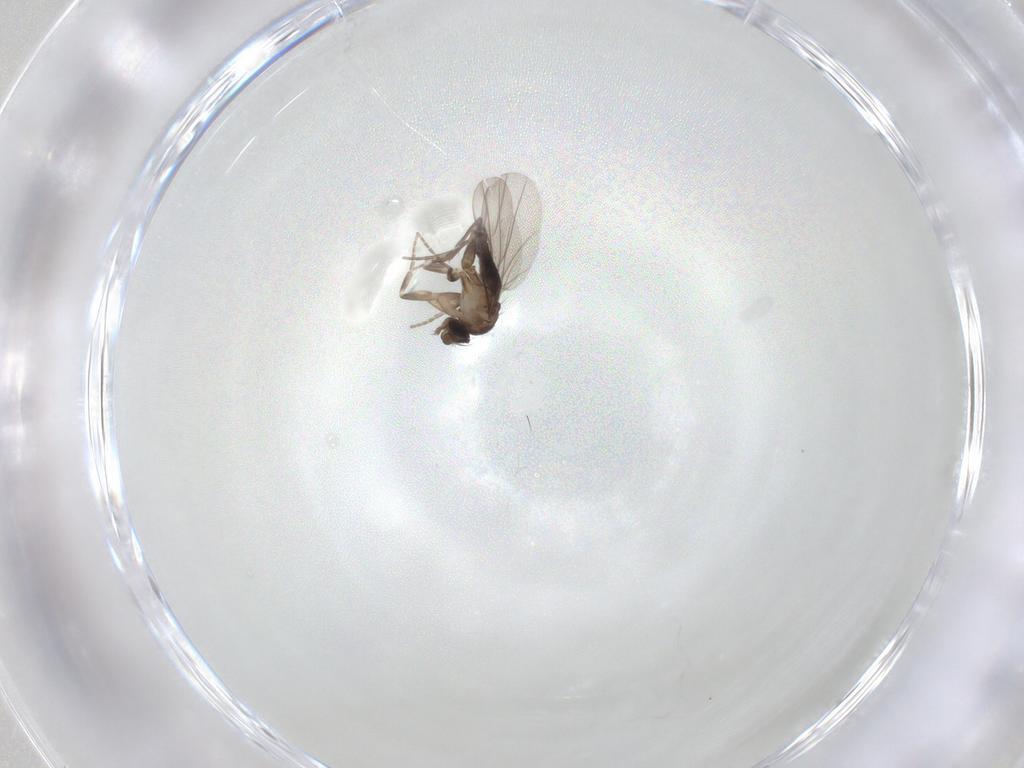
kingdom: Animalia
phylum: Arthropoda
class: Insecta
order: Diptera
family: Phoridae
